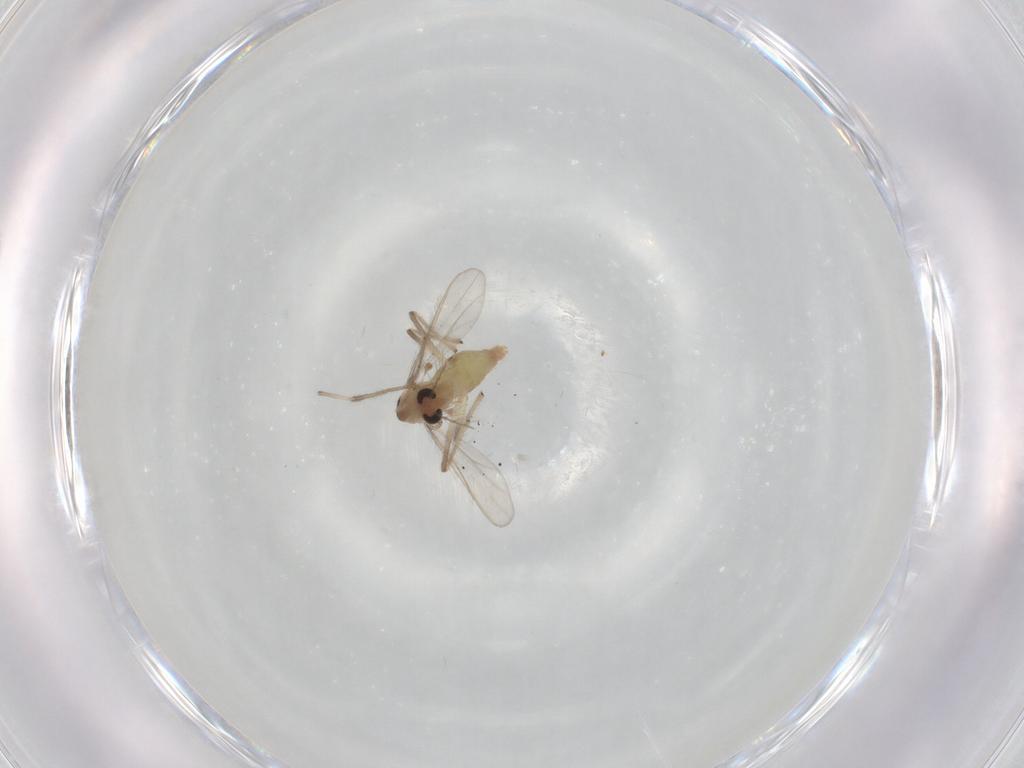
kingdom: Animalia
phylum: Arthropoda
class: Insecta
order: Diptera
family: Chironomidae
